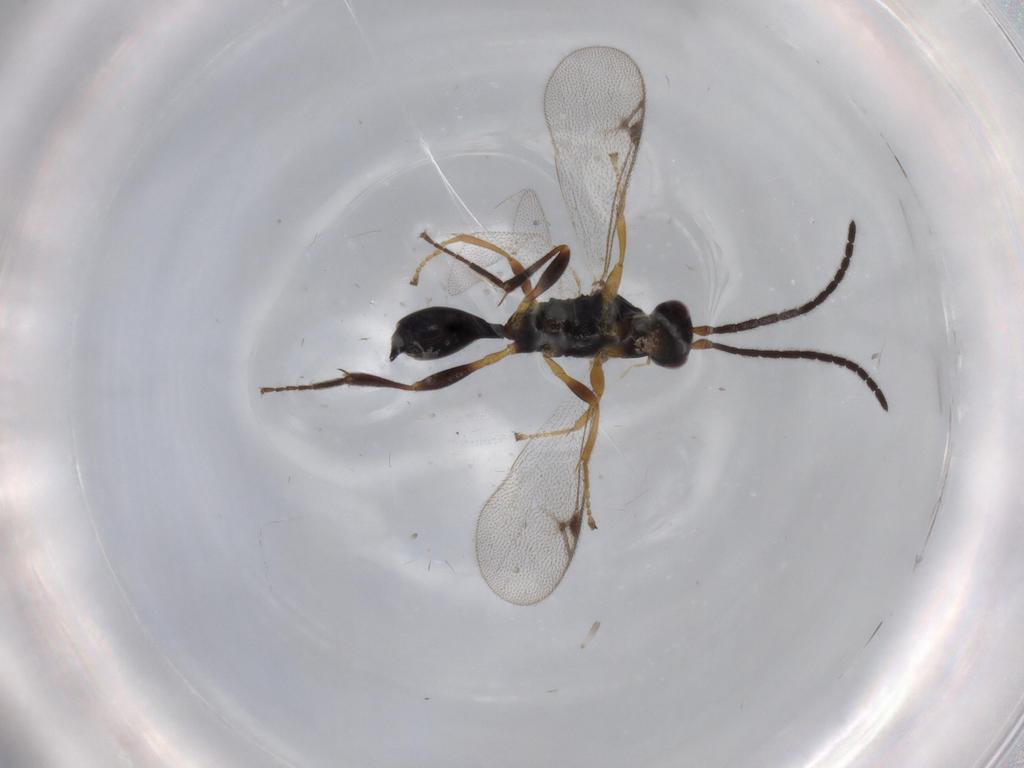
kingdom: Animalia
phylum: Arthropoda
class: Insecta
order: Hymenoptera
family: Proctotrupidae
